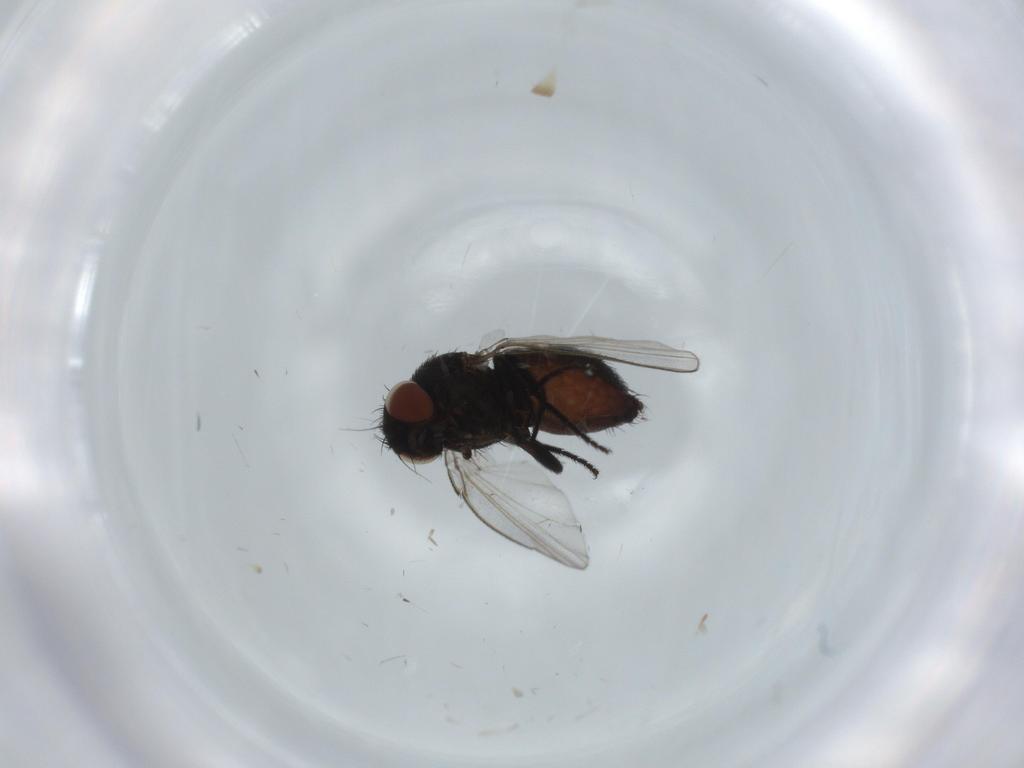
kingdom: Animalia
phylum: Arthropoda
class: Insecta
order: Diptera
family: Milichiidae
